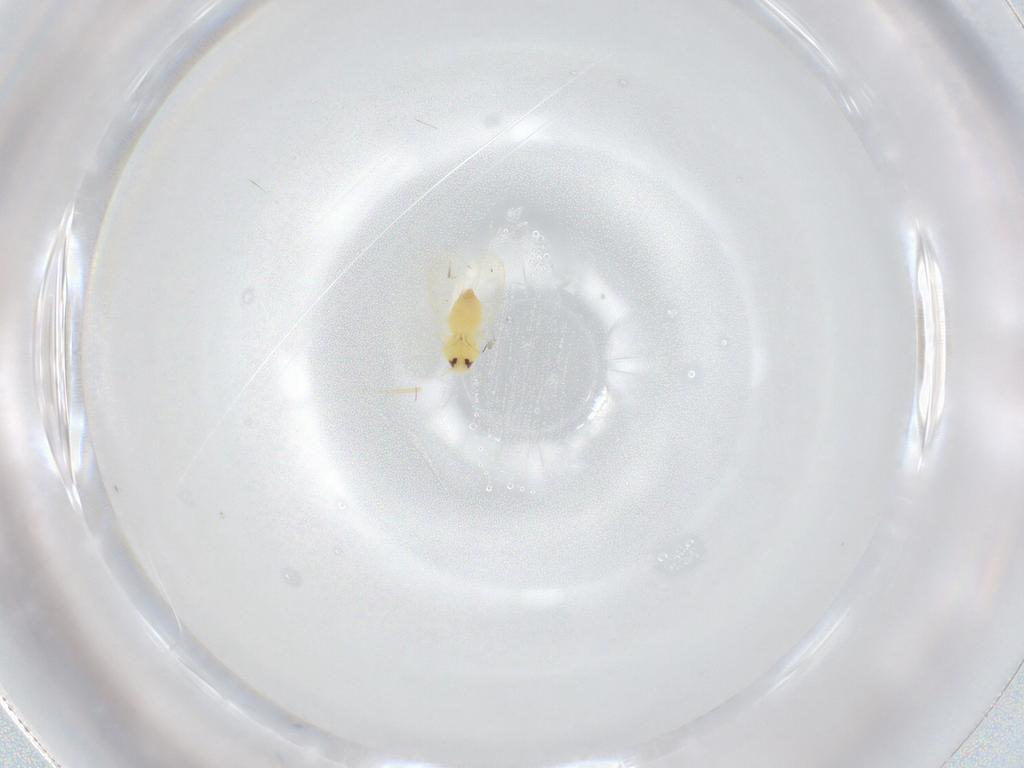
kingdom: Animalia
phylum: Arthropoda
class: Insecta
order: Hemiptera
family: Aleyrodidae
